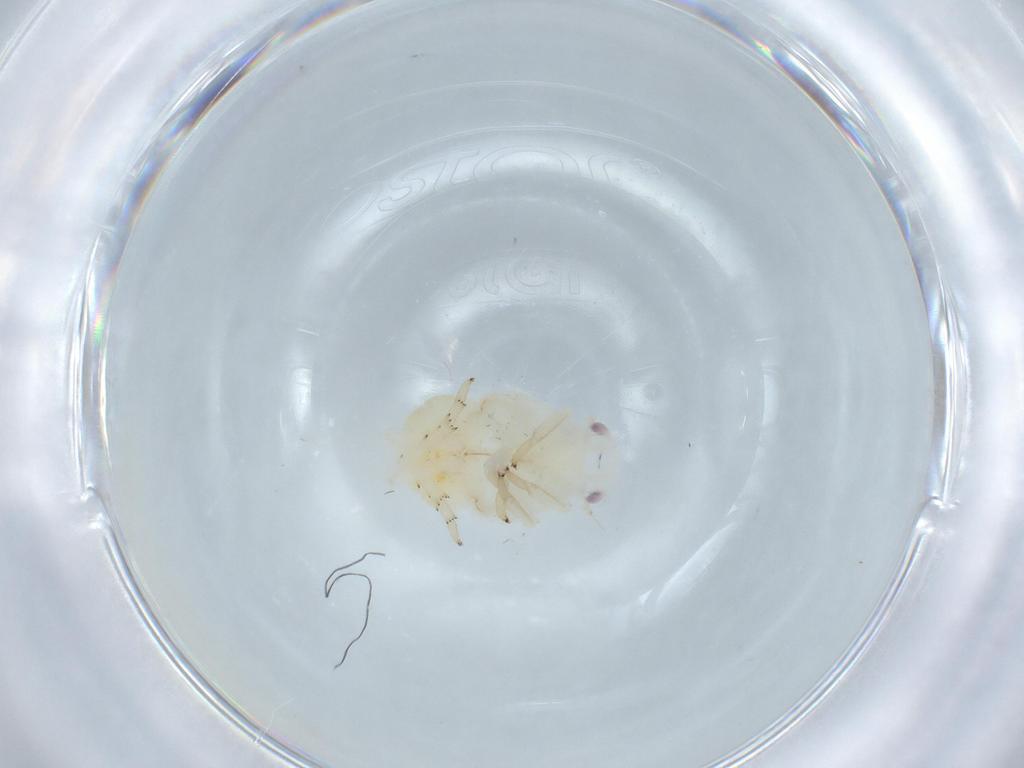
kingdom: Animalia
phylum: Arthropoda
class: Insecta
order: Hemiptera
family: Flatidae
